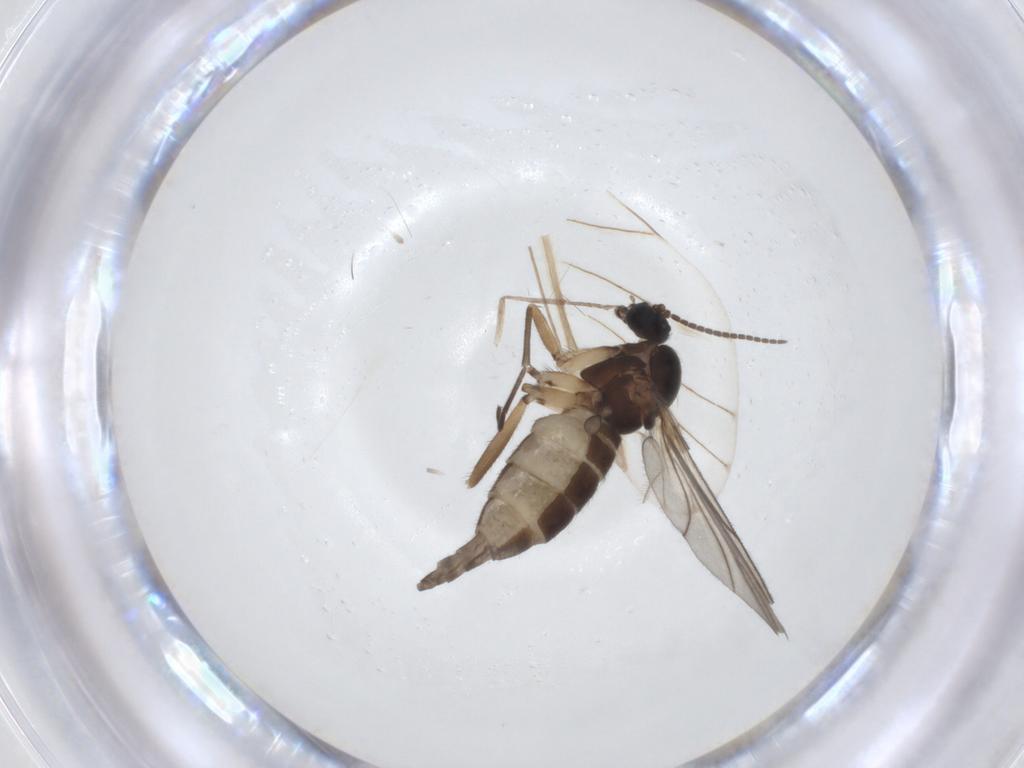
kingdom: Animalia
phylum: Arthropoda
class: Insecta
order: Diptera
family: Sciaridae
